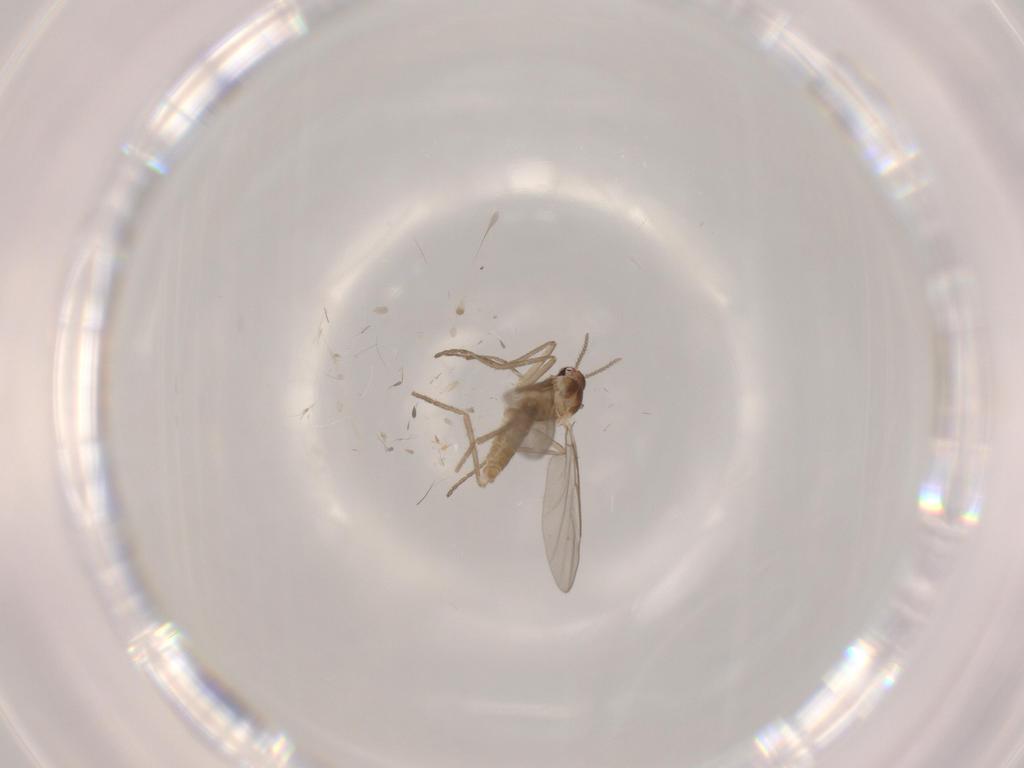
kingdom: Animalia
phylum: Arthropoda
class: Insecta
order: Diptera
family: Cecidomyiidae
